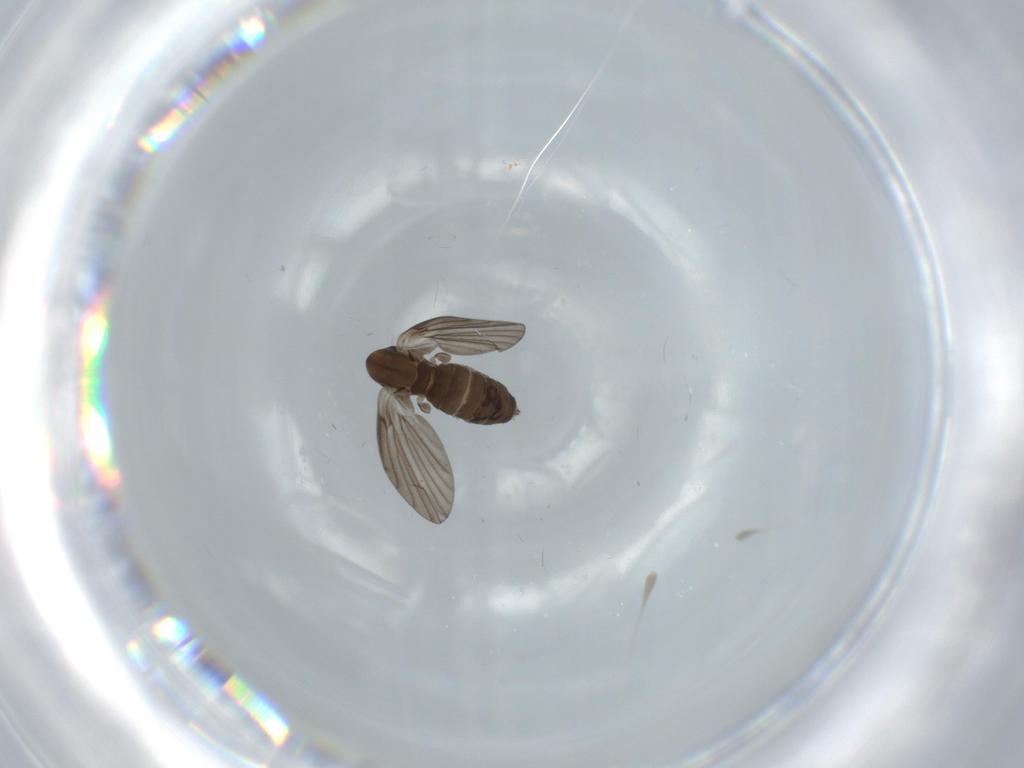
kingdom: Animalia
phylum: Arthropoda
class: Insecta
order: Diptera
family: Psychodidae
